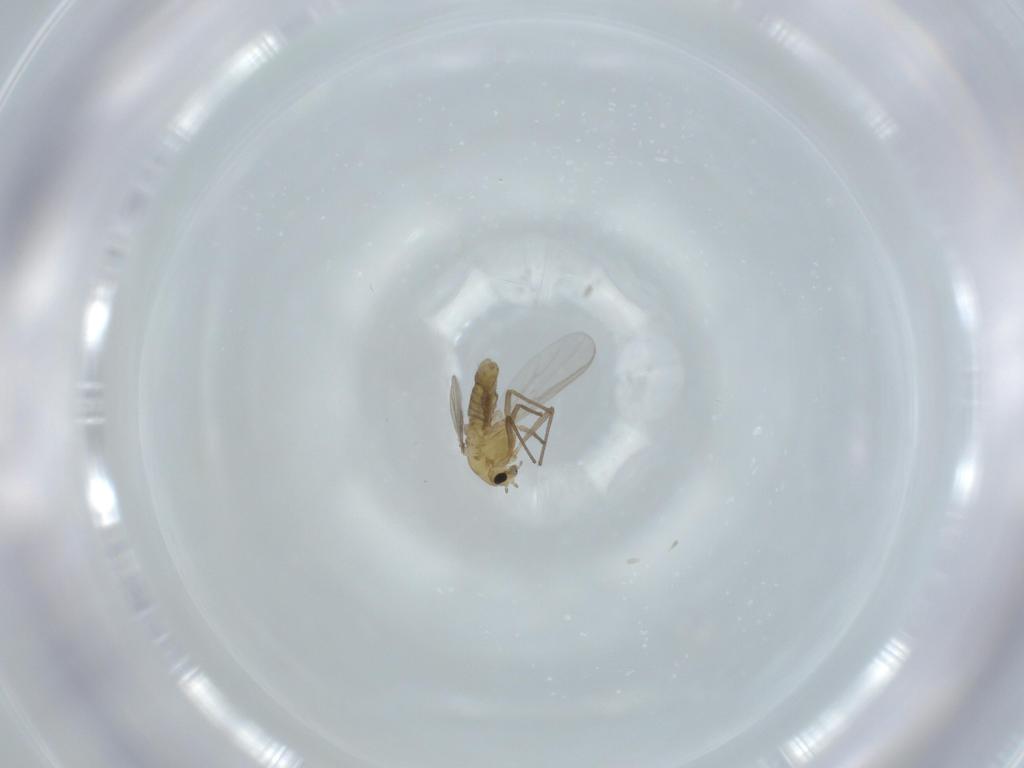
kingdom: Animalia
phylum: Arthropoda
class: Insecta
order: Diptera
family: Chironomidae
